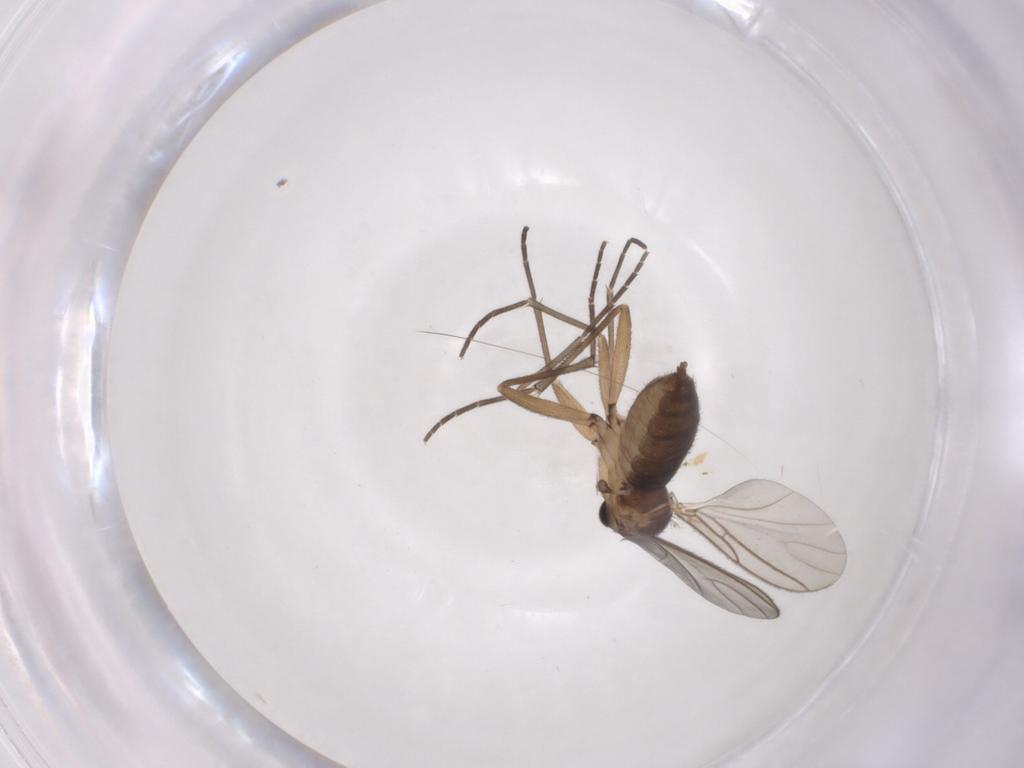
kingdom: Animalia
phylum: Arthropoda
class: Insecta
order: Diptera
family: Sciaridae
